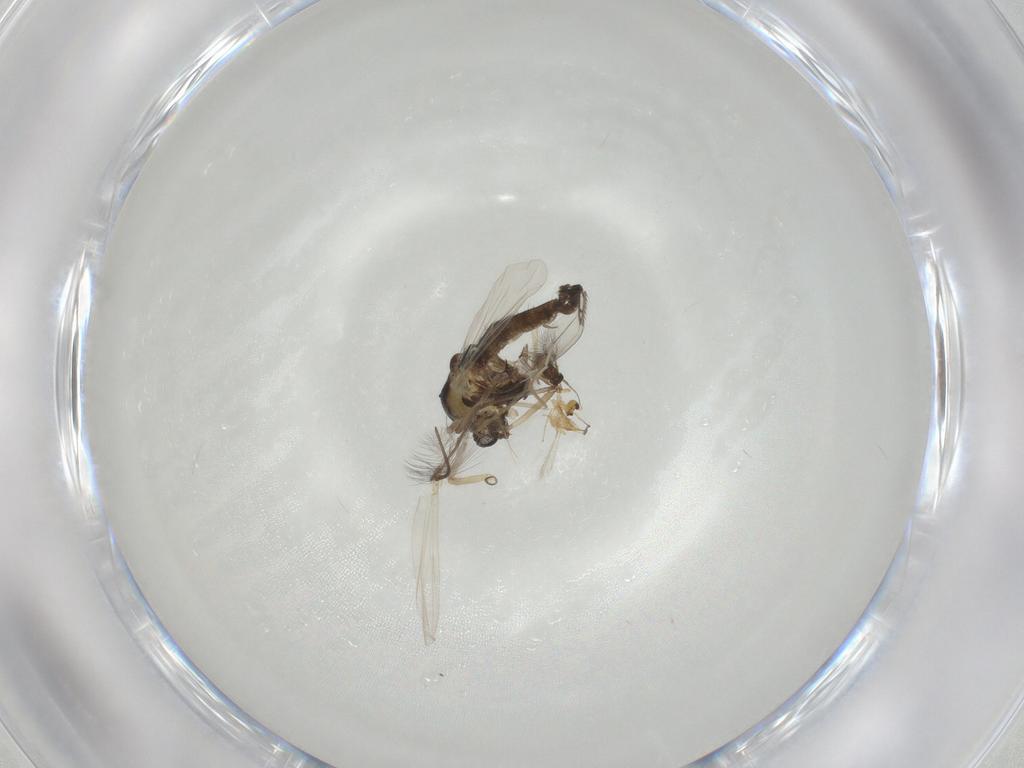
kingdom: Animalia
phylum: Arthropoda
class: Insecta
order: Diptera
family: Chironomidae
